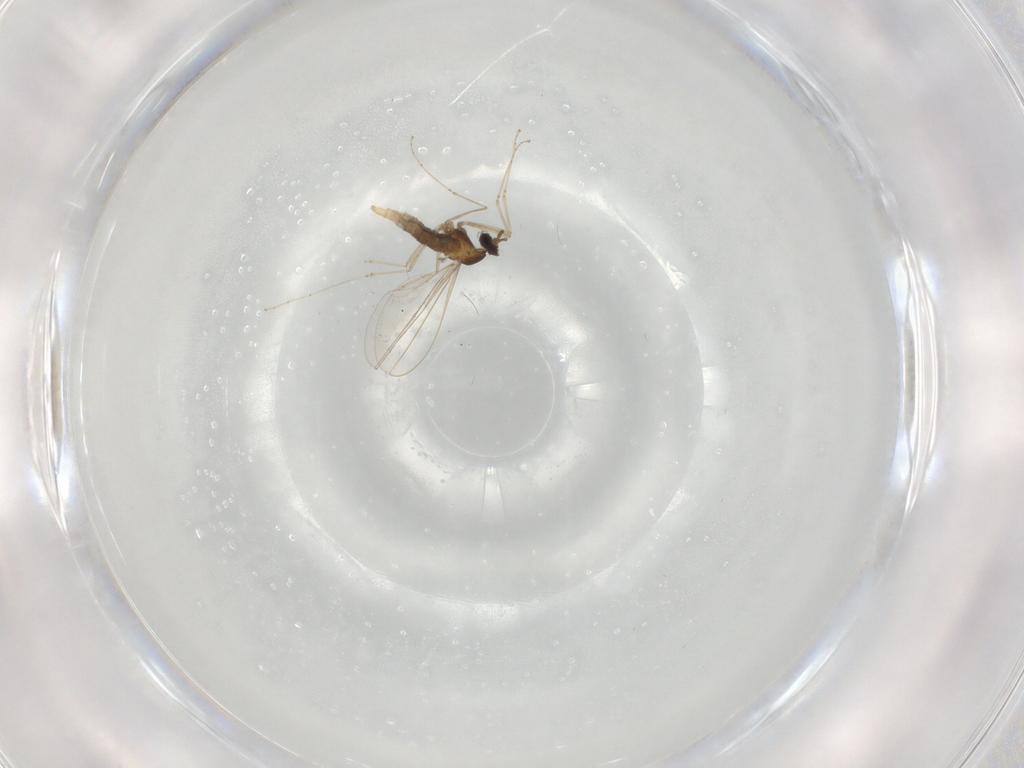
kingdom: Animalia
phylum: Arthropoda
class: Insecta
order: Diptera
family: Cecidomyiidae
